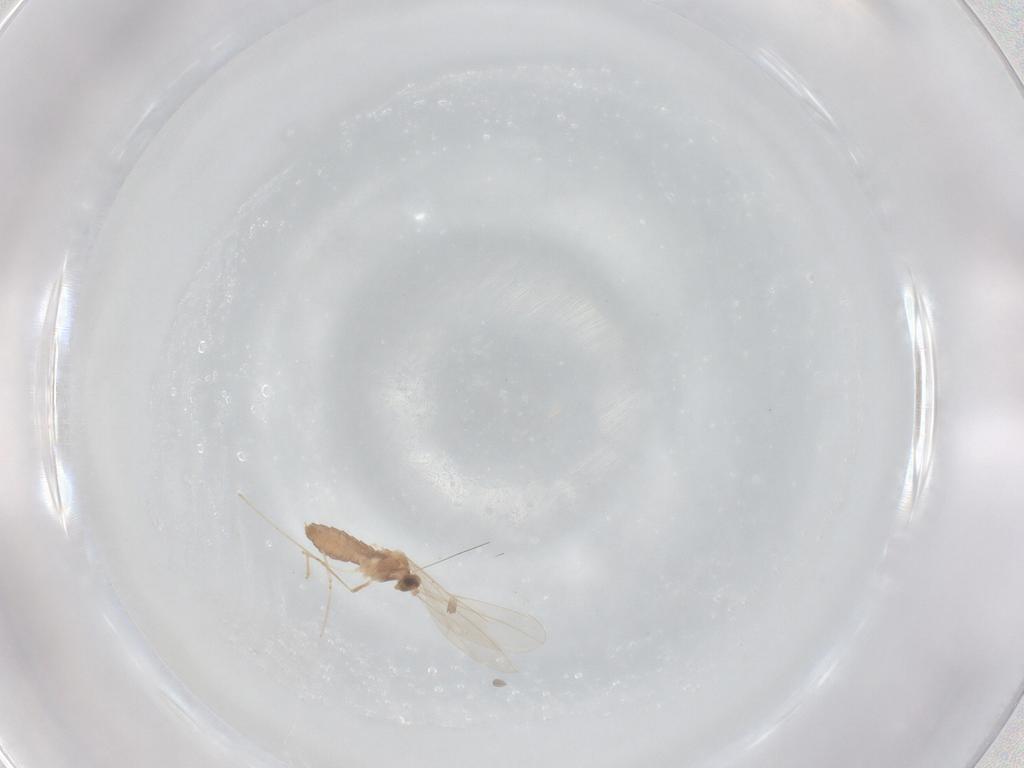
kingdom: Animalia
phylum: Arthropoda
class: Insecta
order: Diptera
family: Cecidomyiidae
